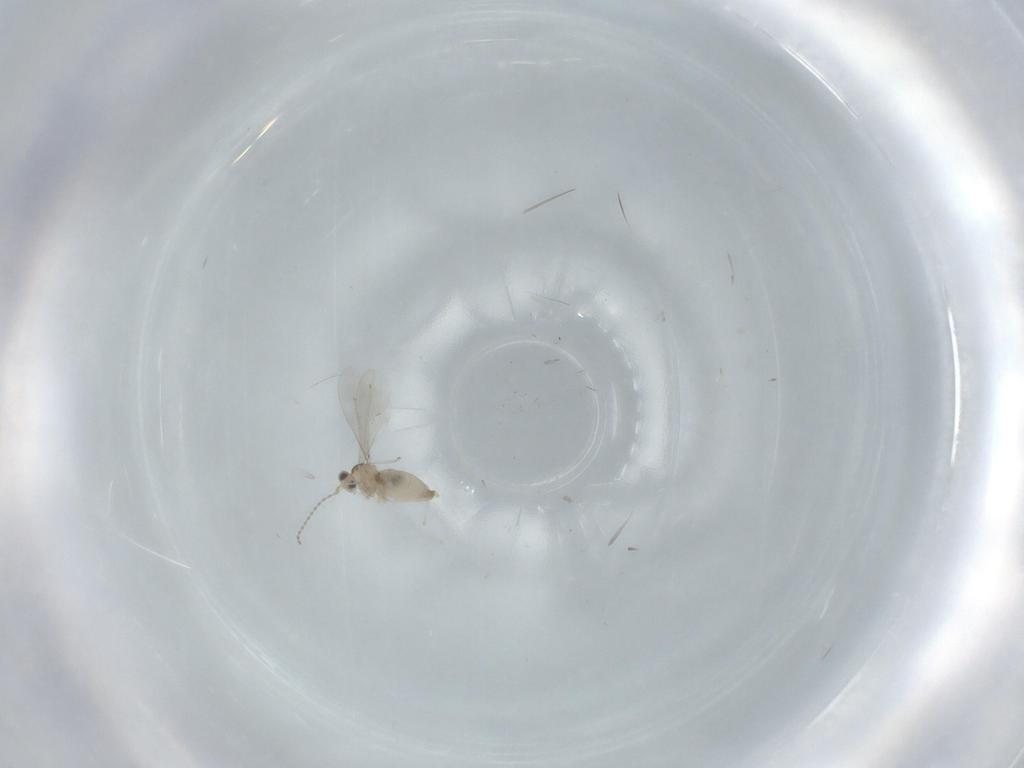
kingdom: Animalia
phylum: Arthropoda
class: Insecta
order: Diptera
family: Cecidomyiidae
